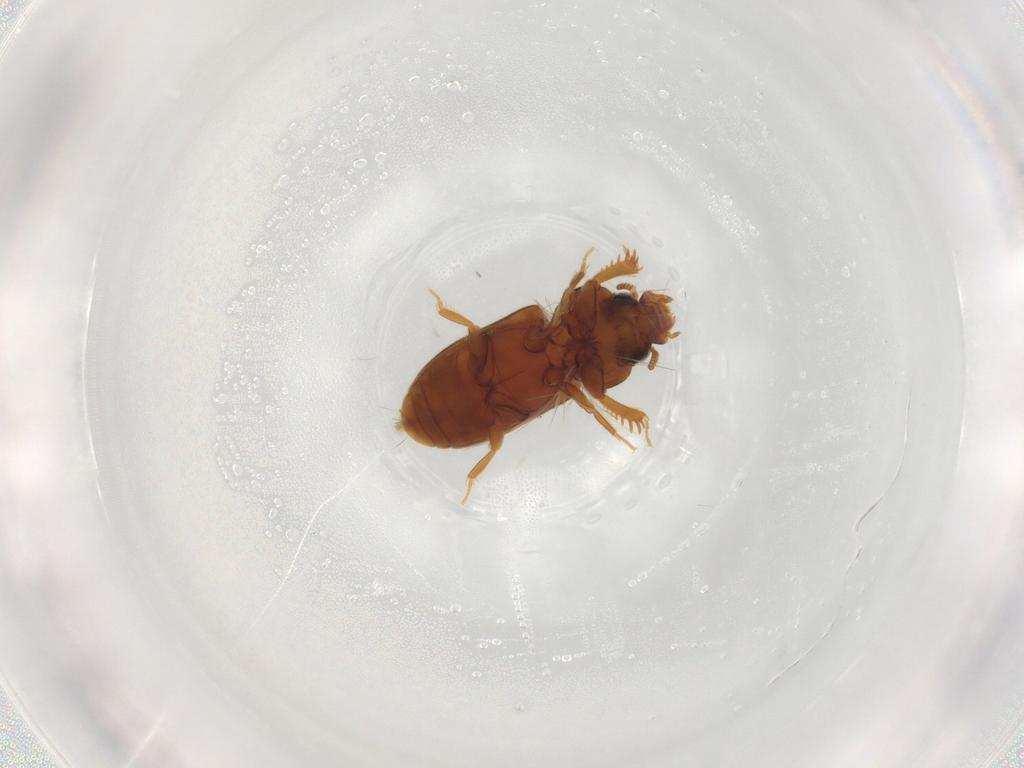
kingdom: Animalia
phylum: Arthropoda
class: Insecta
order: Coleoptera
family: Heteroceridae
